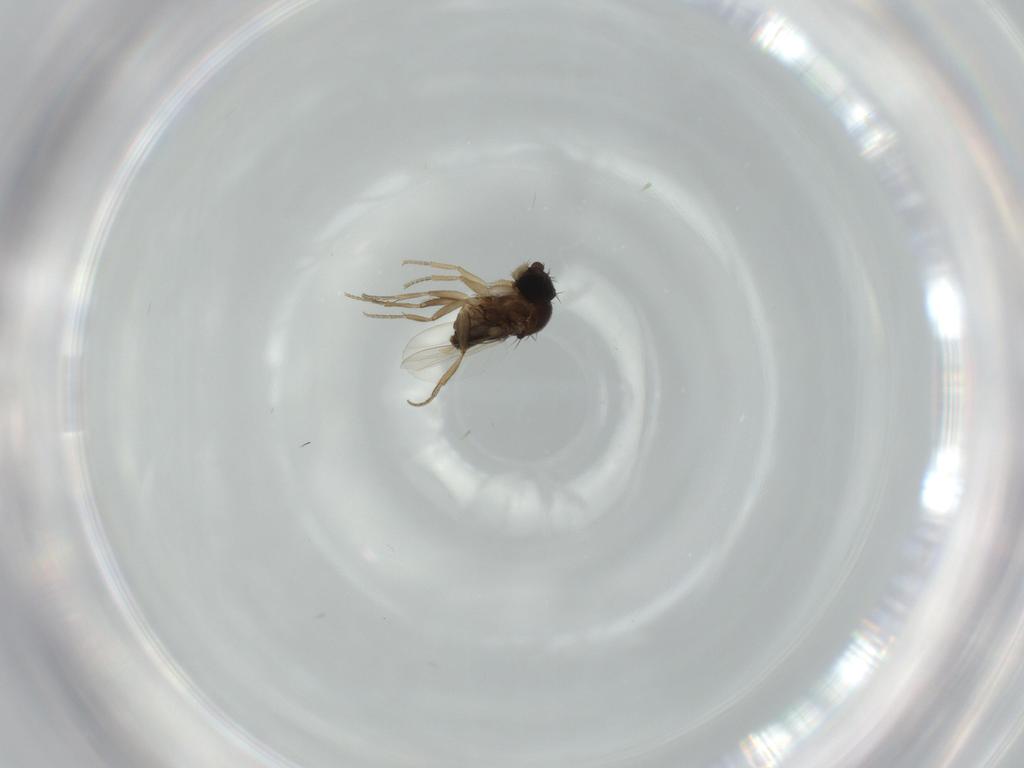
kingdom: Animalia
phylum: Arthropoda
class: Insecta
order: Diptera
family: Phoridae
